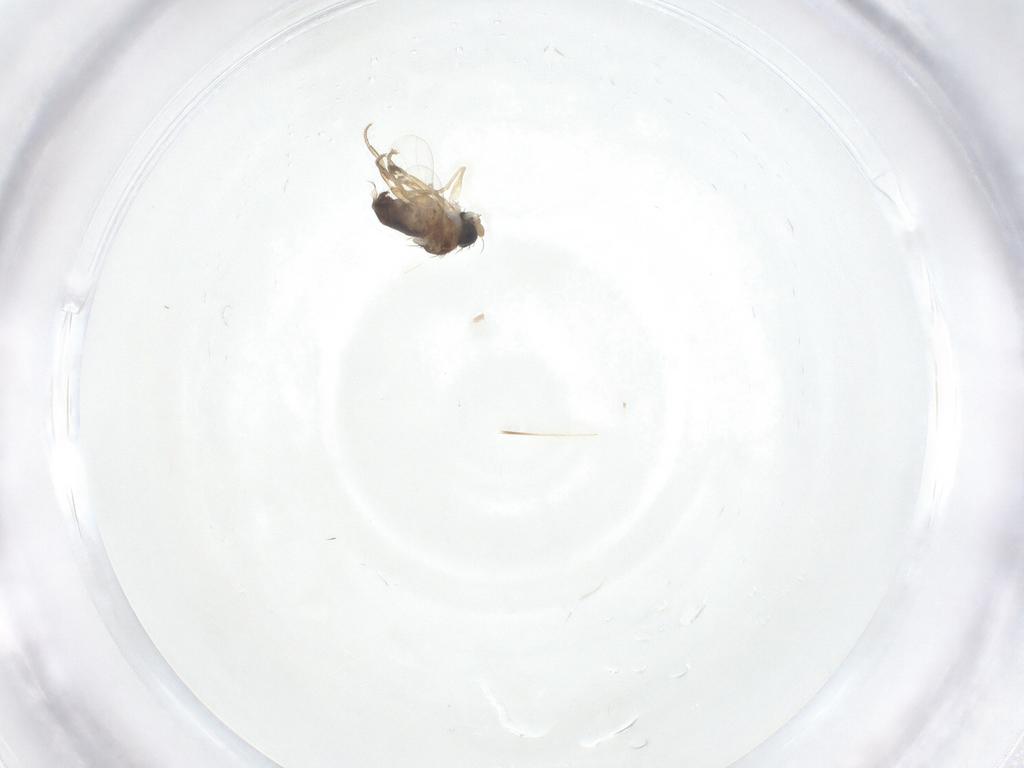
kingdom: Animalia
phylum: Arthropoda
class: Insecta
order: Diptera
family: Phoridae
